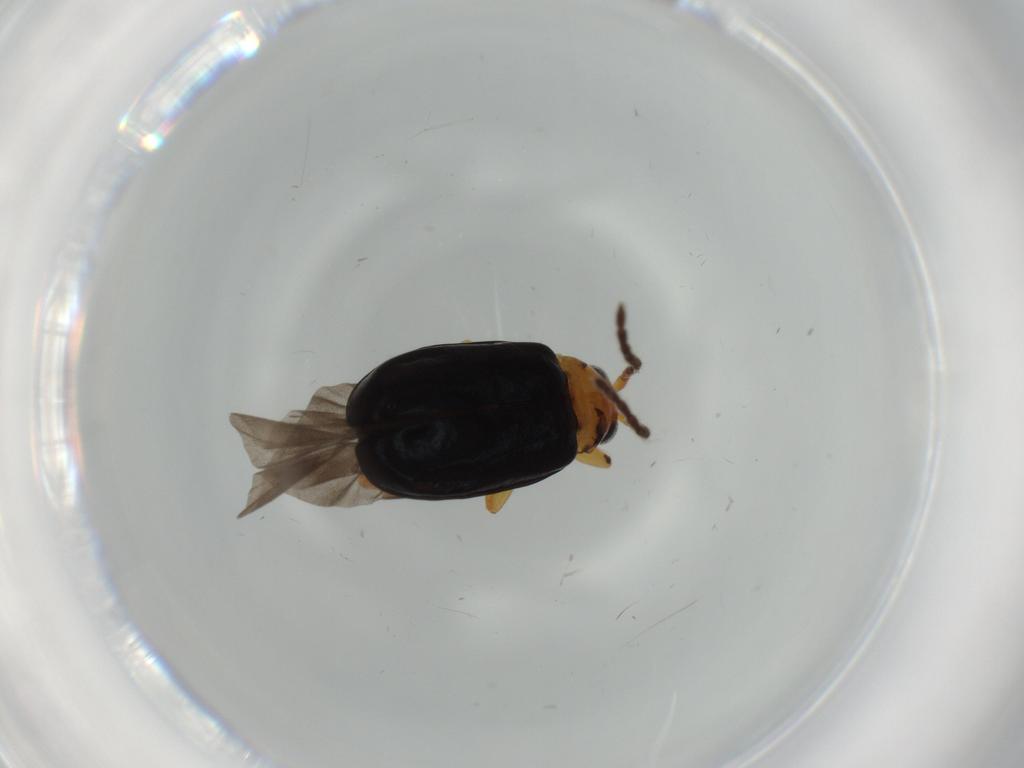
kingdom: Animalia
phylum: Arthropoda
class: Insecta
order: Coleoptera
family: Chrysomelidae
